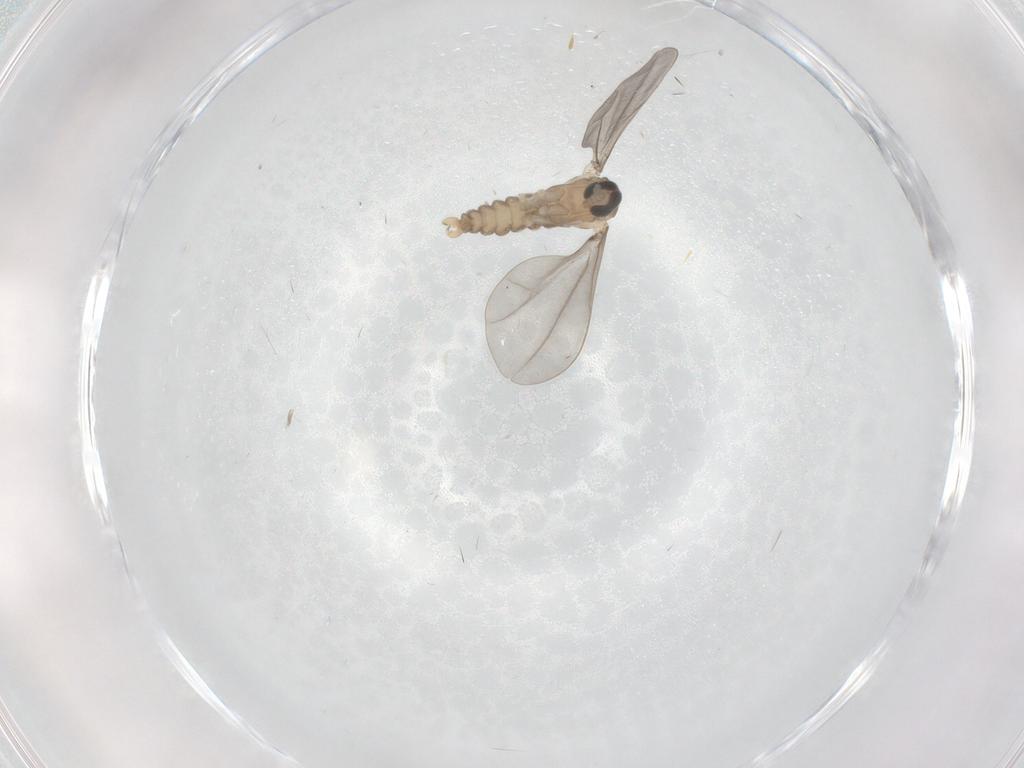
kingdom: Animalia
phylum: Arthropoda
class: Insecta
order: Diptera
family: Cecidomyiidae
